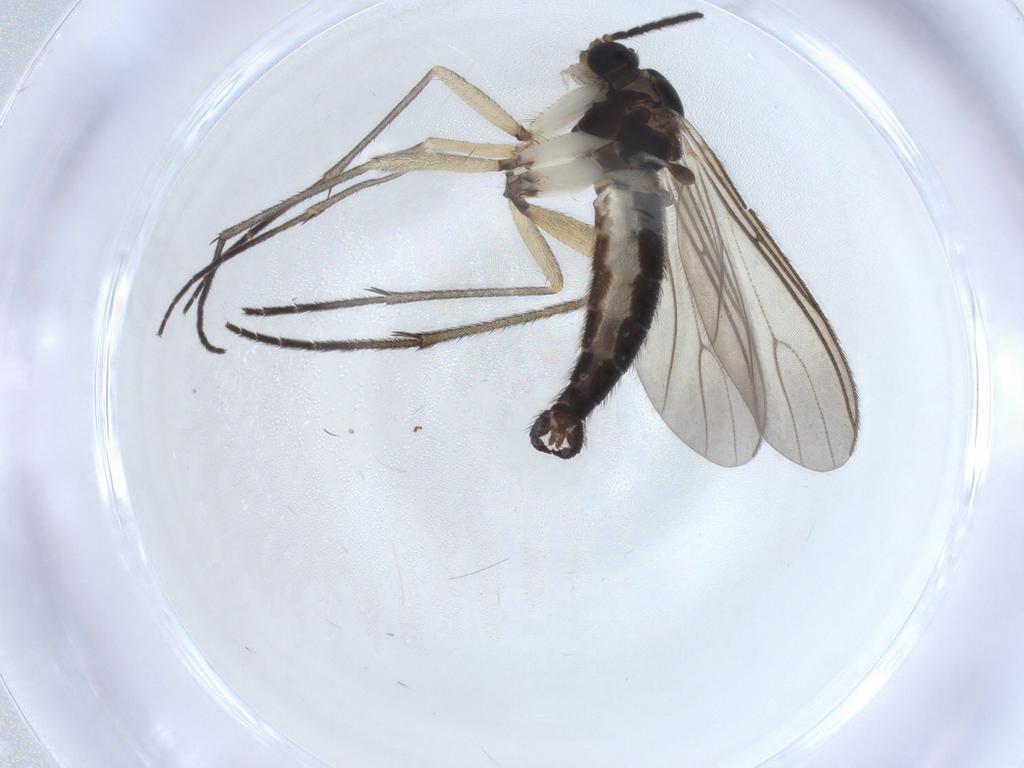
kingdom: Animalia
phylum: Arthropoda
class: Insecta
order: Diptera
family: Sciaridae
